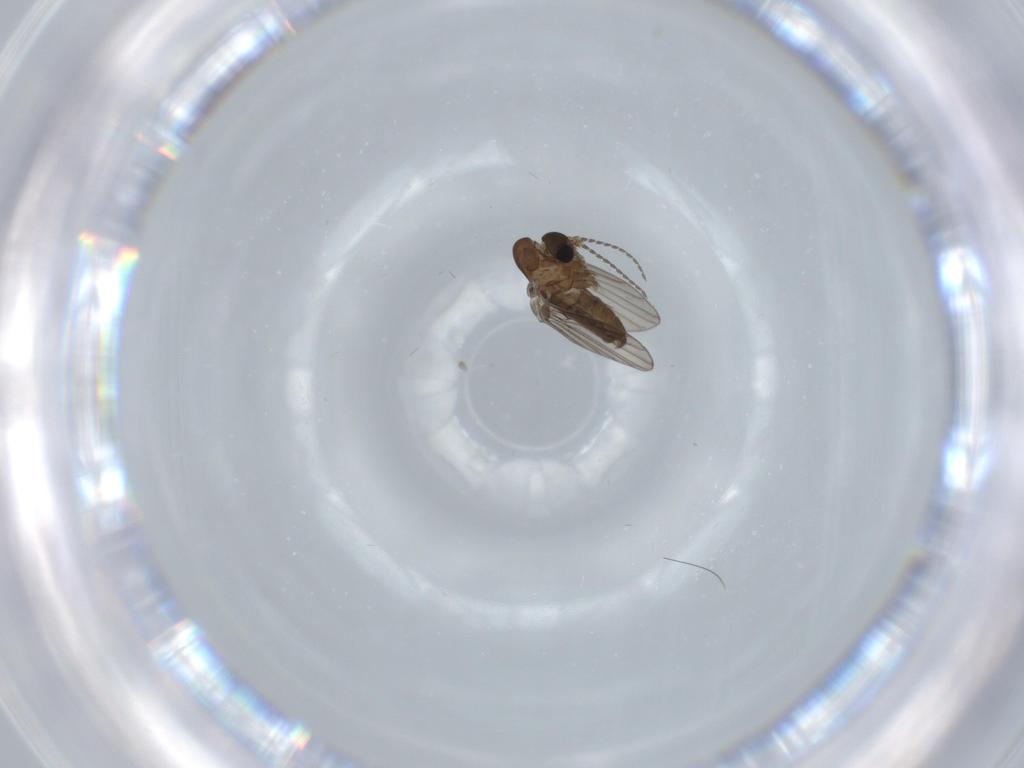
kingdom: Animalia
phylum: Arthropoda
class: Insecta
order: Diptera
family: Psychodidae
